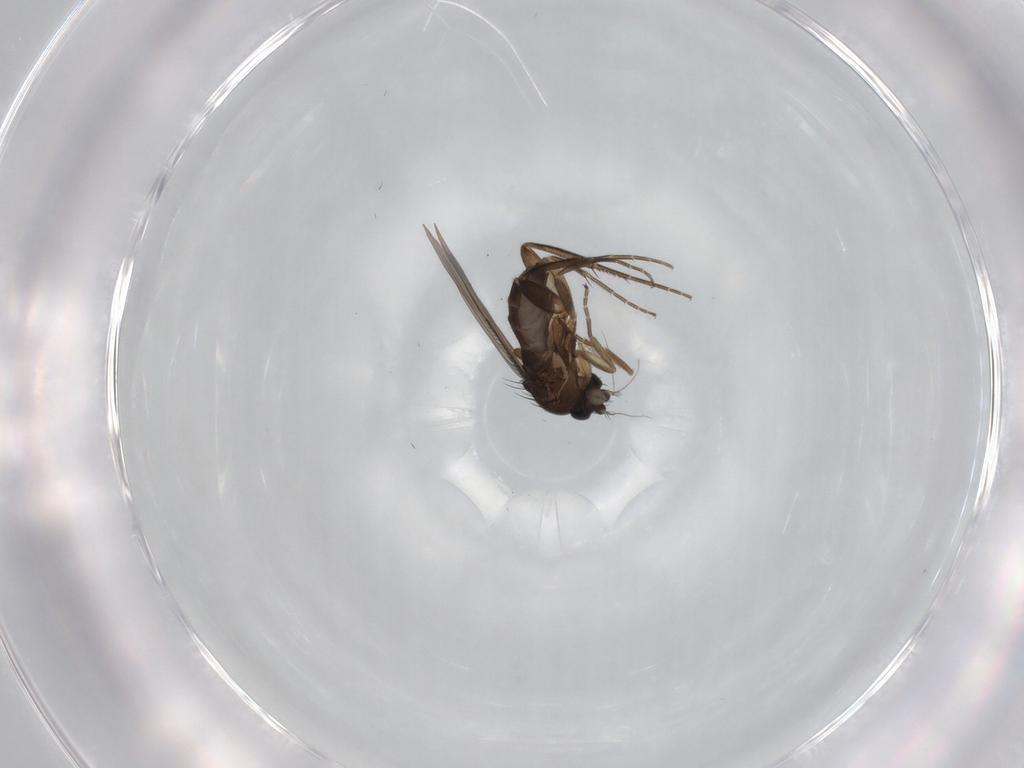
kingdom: Animalia
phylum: Arthropoda
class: Insecta
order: Diptera
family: Phoridae
